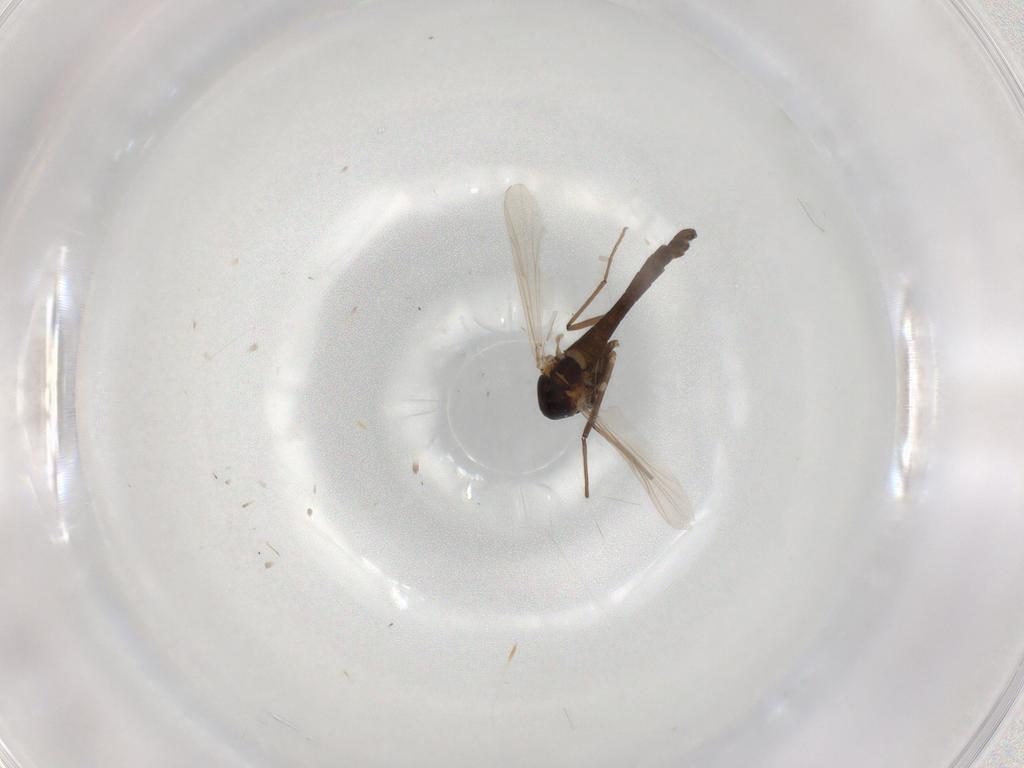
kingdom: Animalia
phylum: Arthropoda
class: Insecta
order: Diptera
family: Chironomidae
